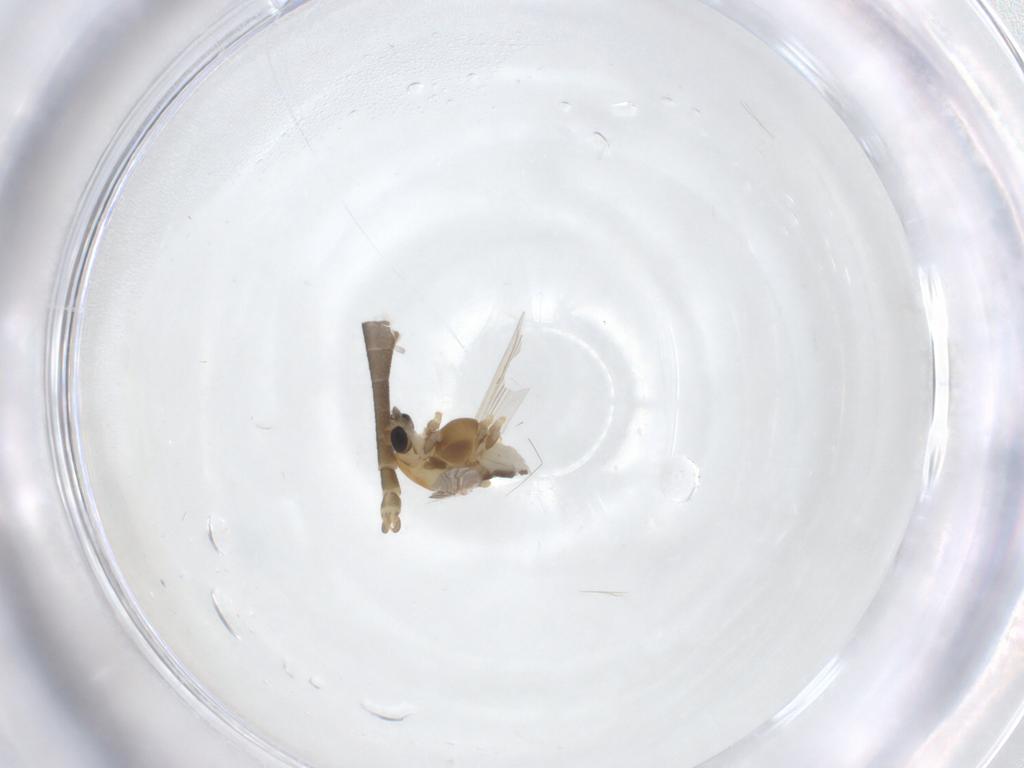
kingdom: Animalia
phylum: Arthropoda
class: Insecta
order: Diptera
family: Chironomidae
